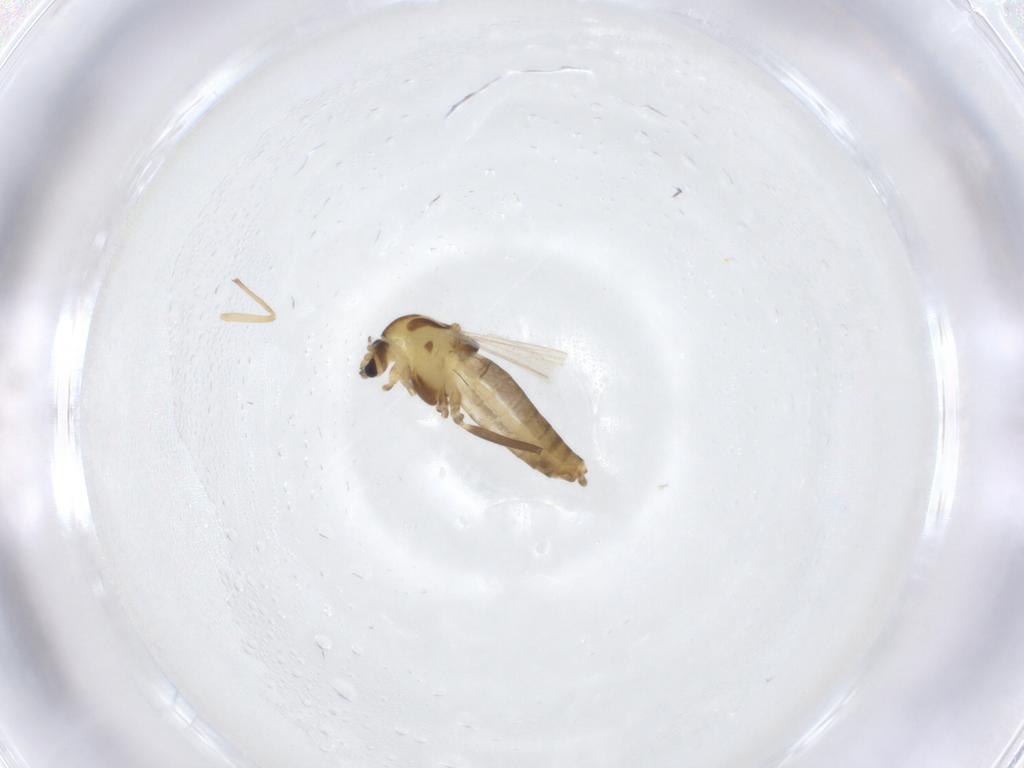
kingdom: Animalia
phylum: Arthropoda
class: Insecta
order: Diptera
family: Chironomidae
